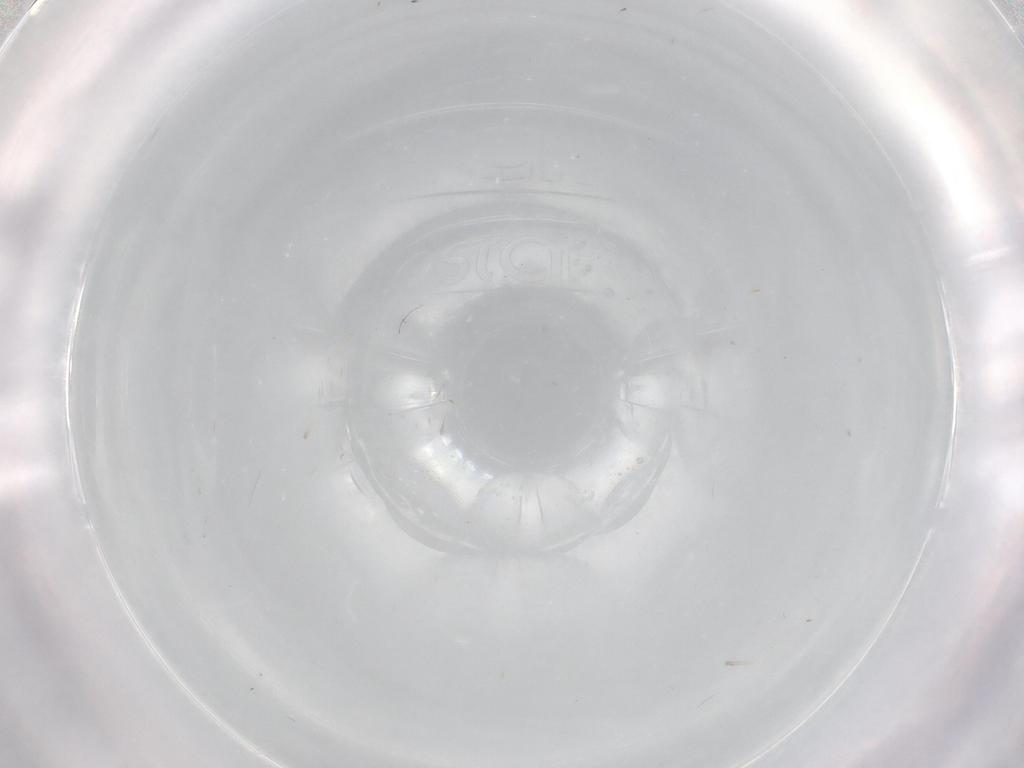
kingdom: Animalia
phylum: Arthropoda
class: Insecta
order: Diptera
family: Cecidomyiidae
